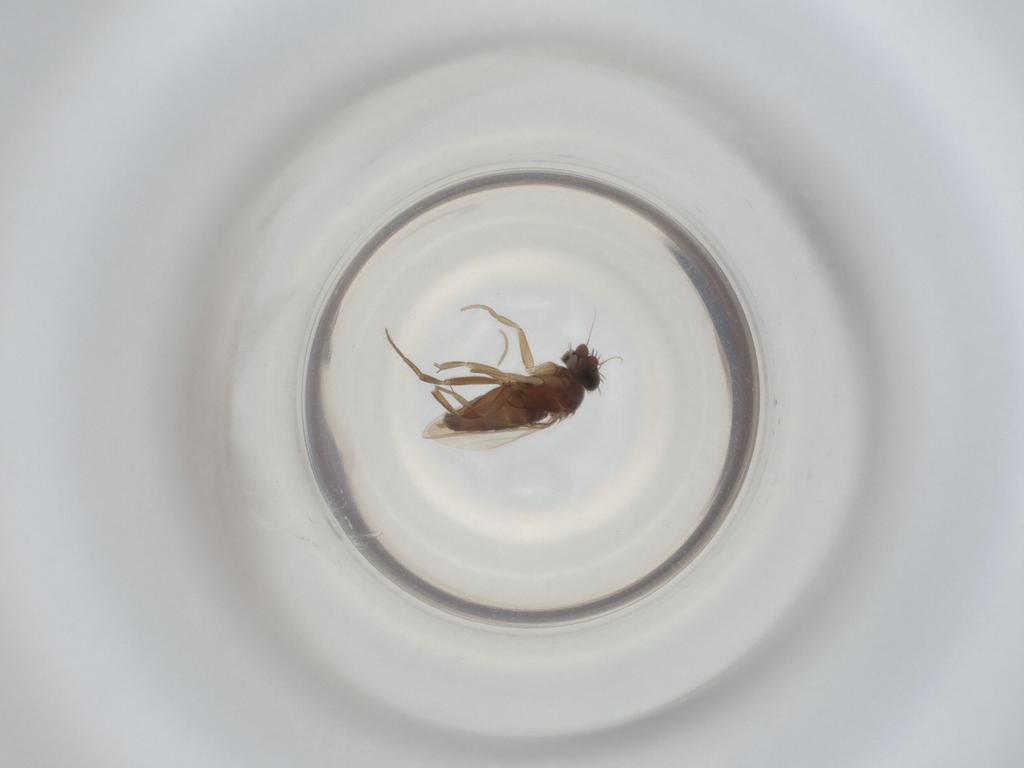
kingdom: Animalia
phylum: Arthropoda
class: Insecta
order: Diptera
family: Phoridae
